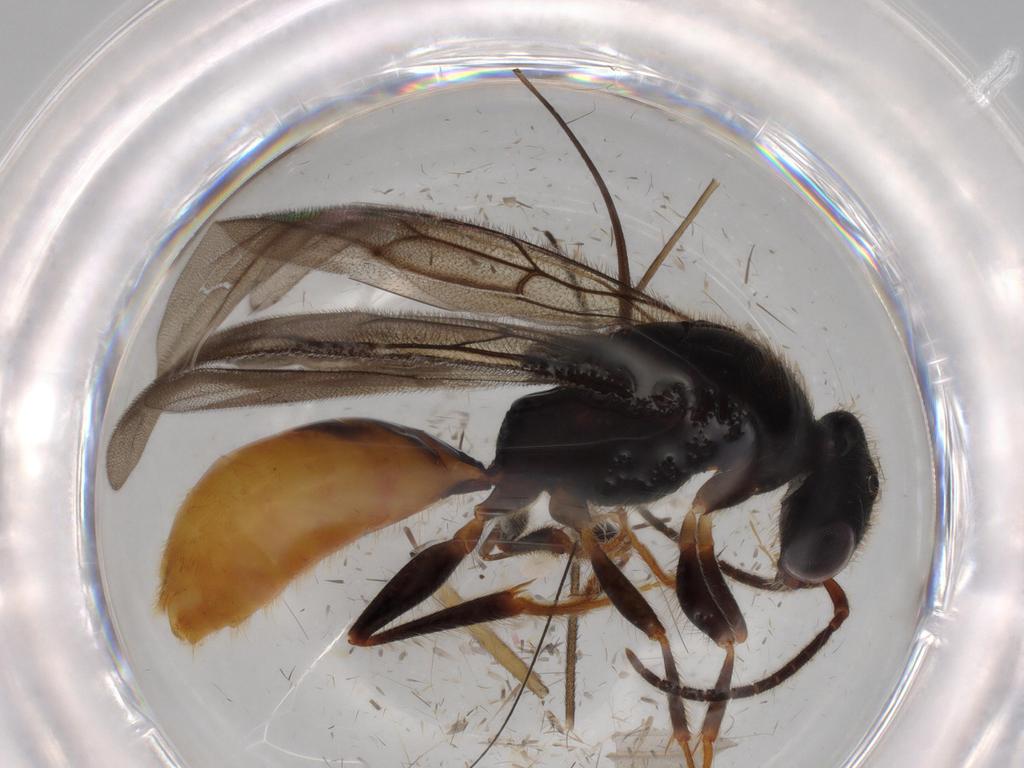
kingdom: Animalia
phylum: Arthropoda
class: Insecta
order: Hymenoptera
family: Bethylidae
